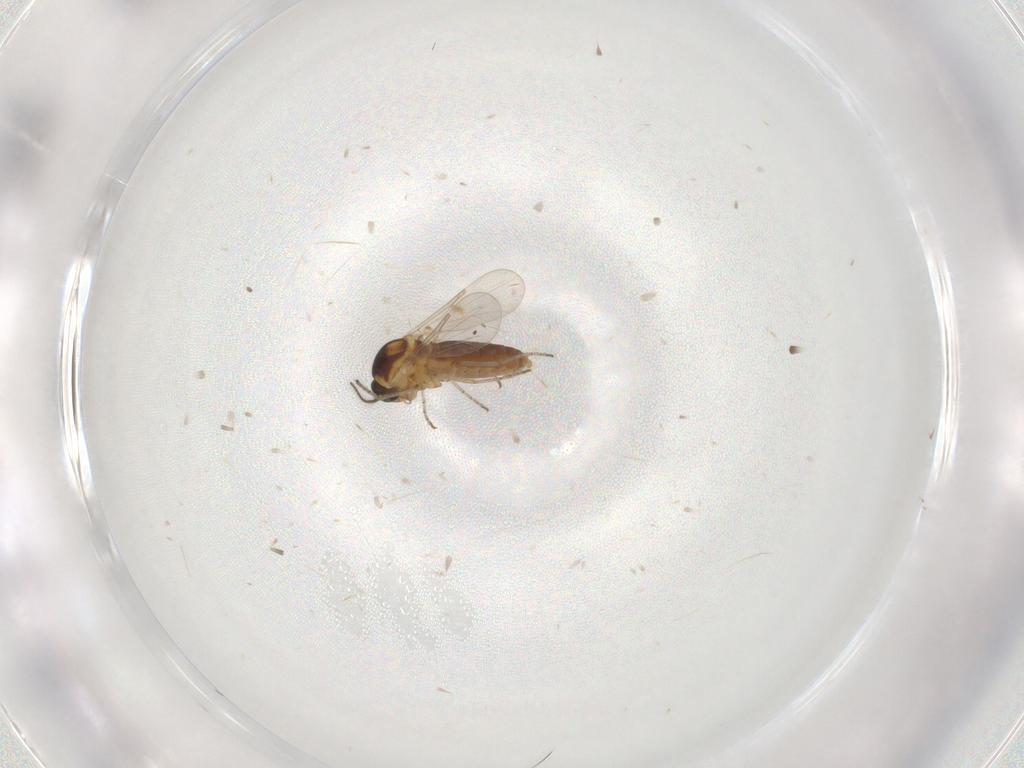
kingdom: Animalia
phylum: Arthropoda
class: Insecta
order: Diptera
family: Ceratopogonidae
